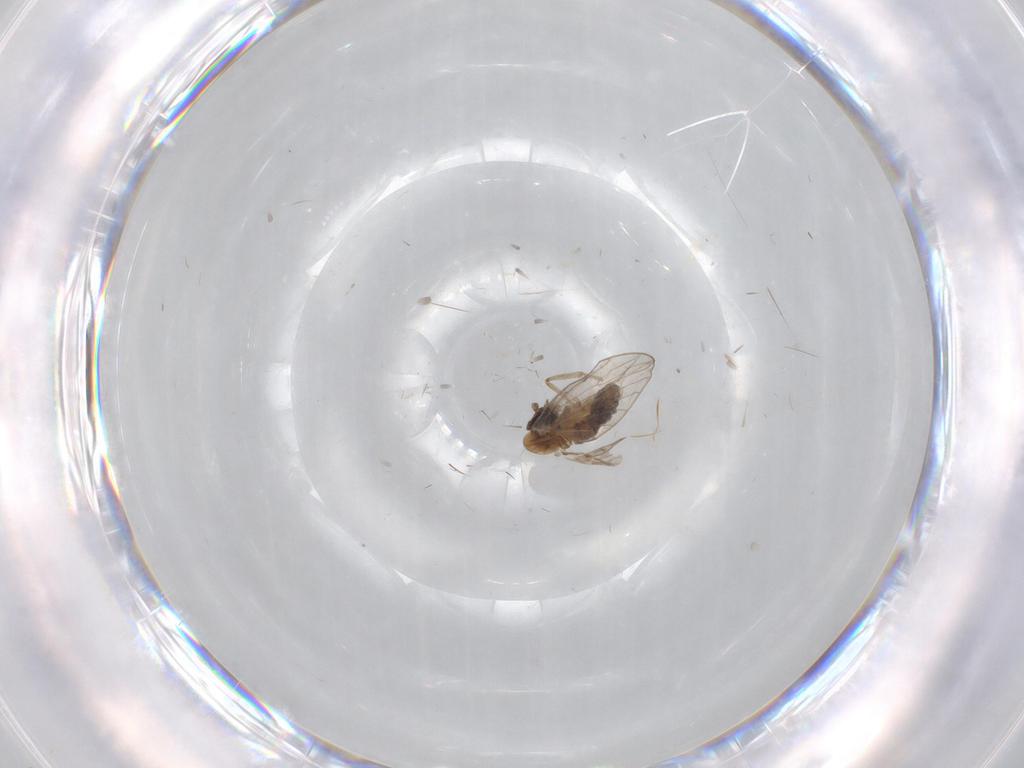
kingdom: Animalia
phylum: Arthropoda
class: Insecta
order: Diptera
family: Psychodidae
